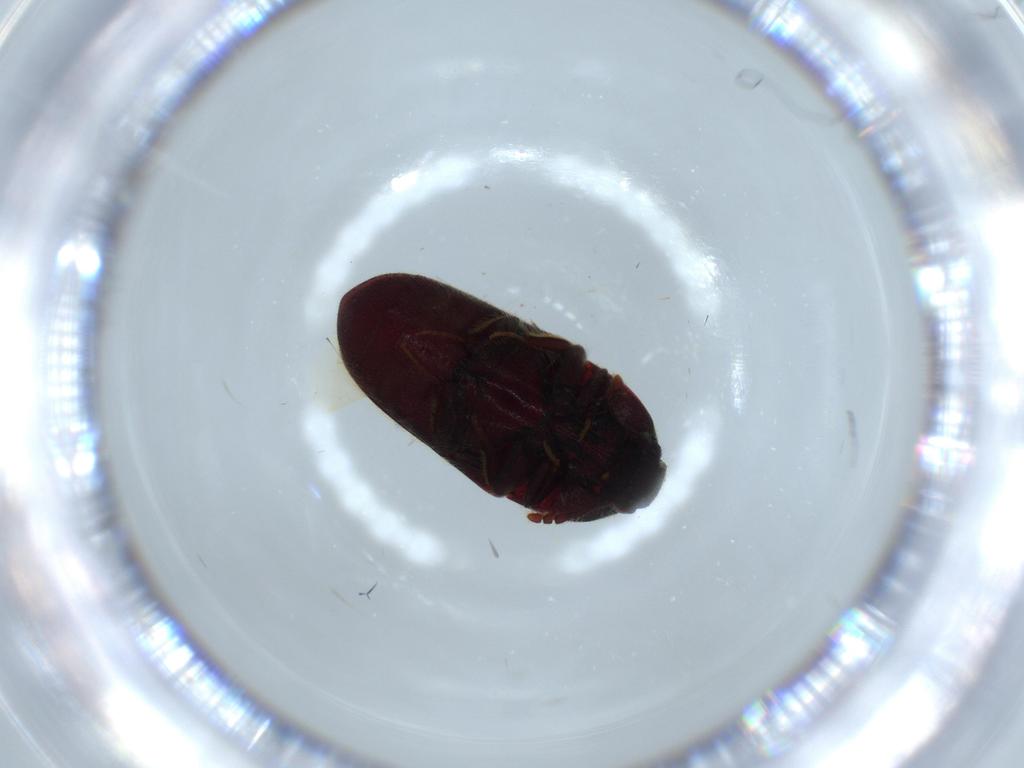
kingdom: Animalia
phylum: Arthropoda
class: Insecta
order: Coleoptera
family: Throscidae
